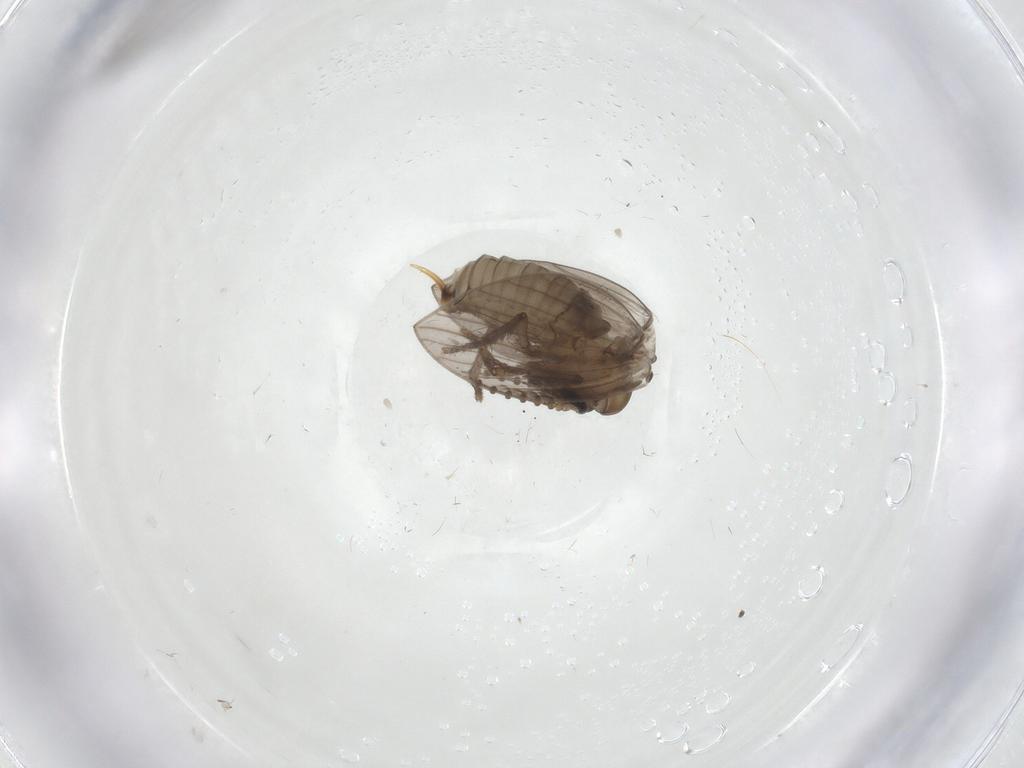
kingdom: Animalia
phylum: Arthropoda
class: Insecta
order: Diptera
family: Psychodidae
